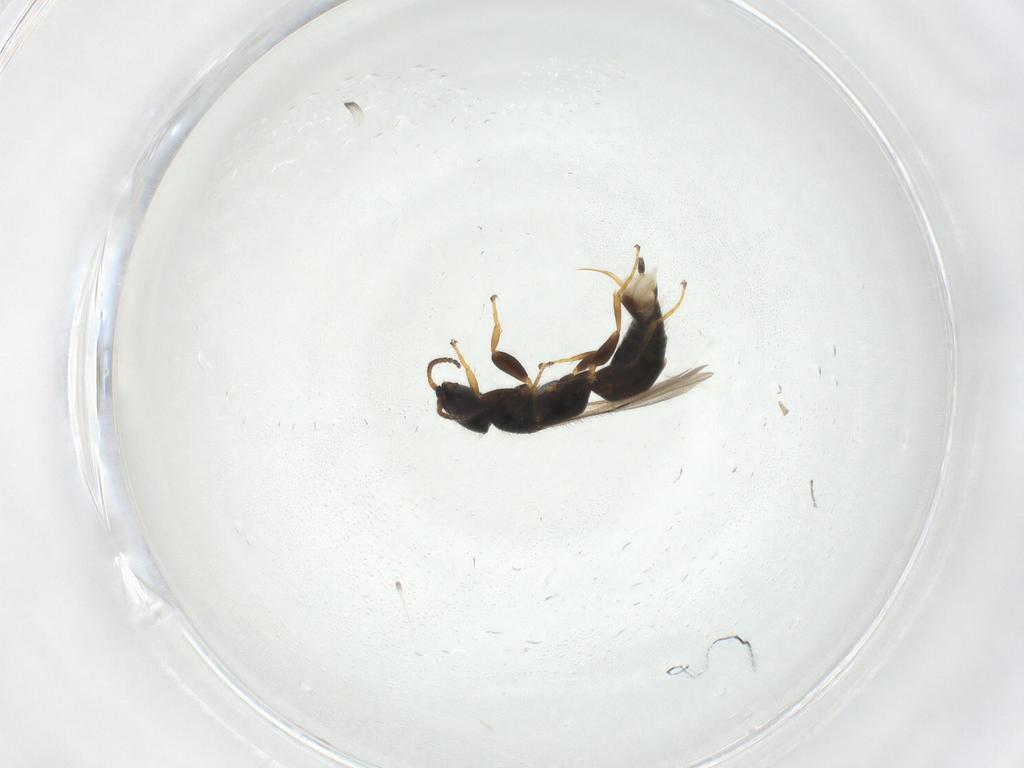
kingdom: Animalia
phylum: Arthropoda
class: Insecta
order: Hymenoptera
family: Bethylidae
